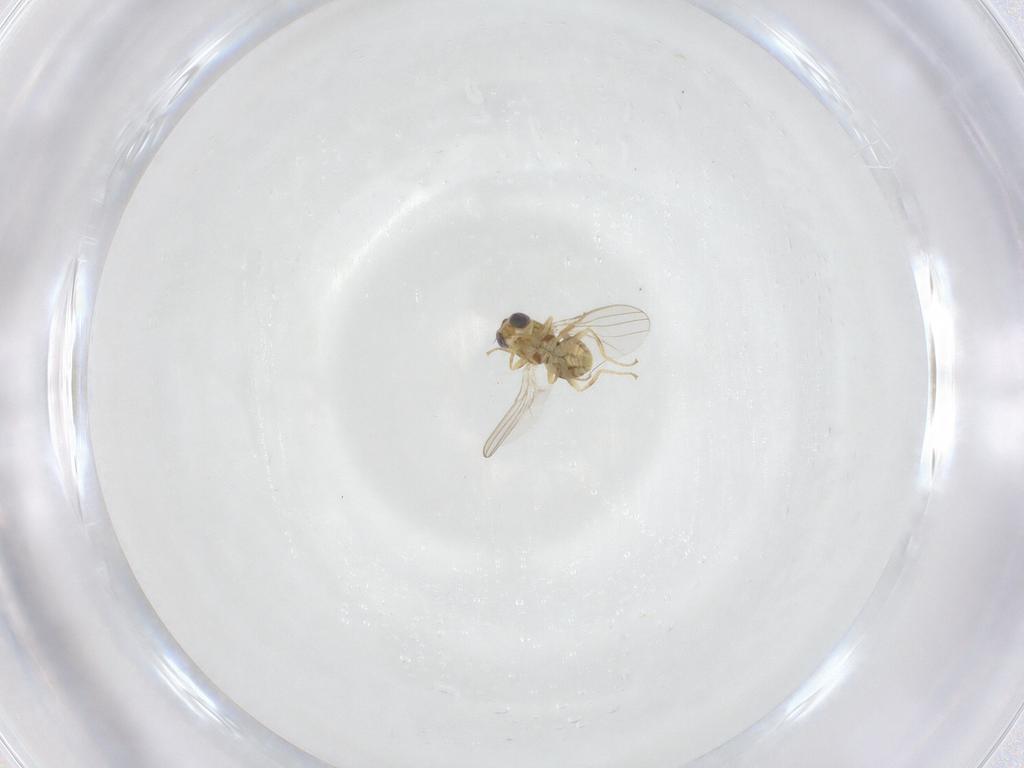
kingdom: Animalia
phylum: Arthropoda
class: Insecta
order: Diptera
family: Chyromyidae
